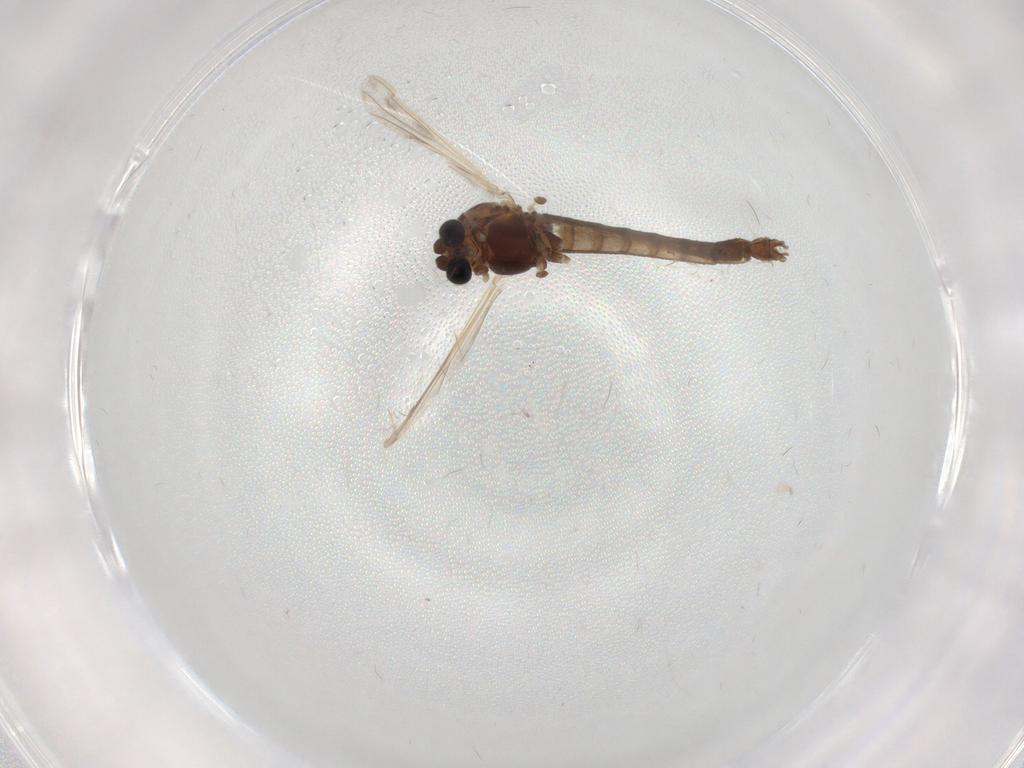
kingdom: Animalia
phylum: Arthropoda
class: Insecta
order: Diptera
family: Chironomidae
